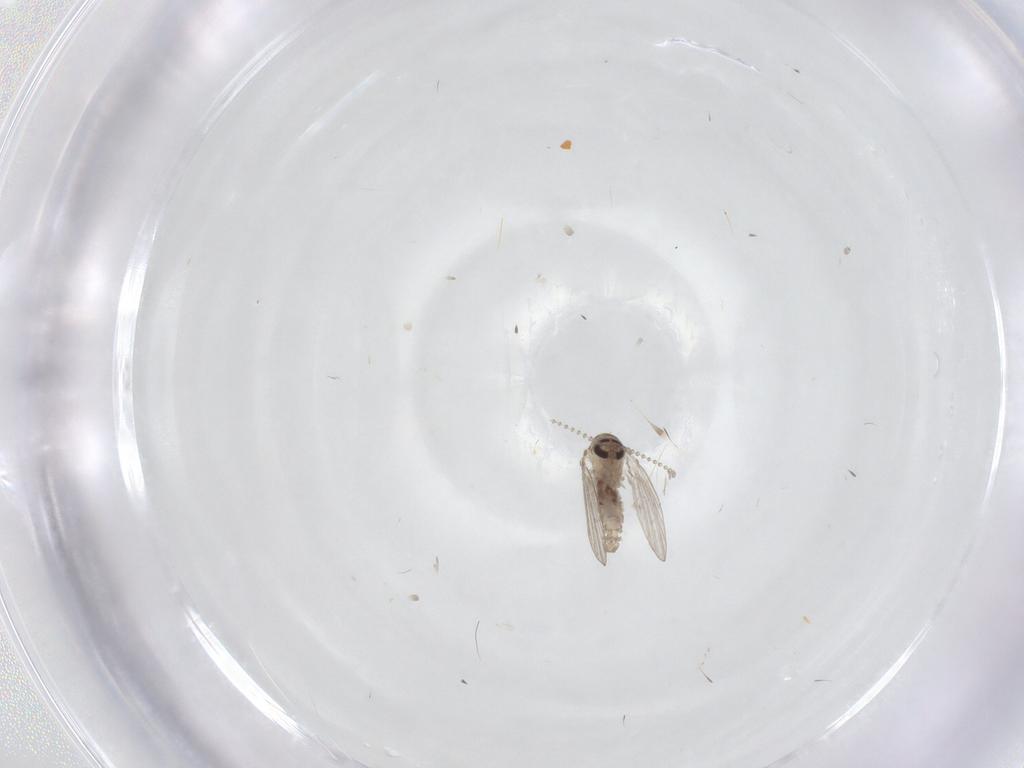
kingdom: Animalia
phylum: Arthropoda
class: Insecta
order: Diptera
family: Psychodidae
